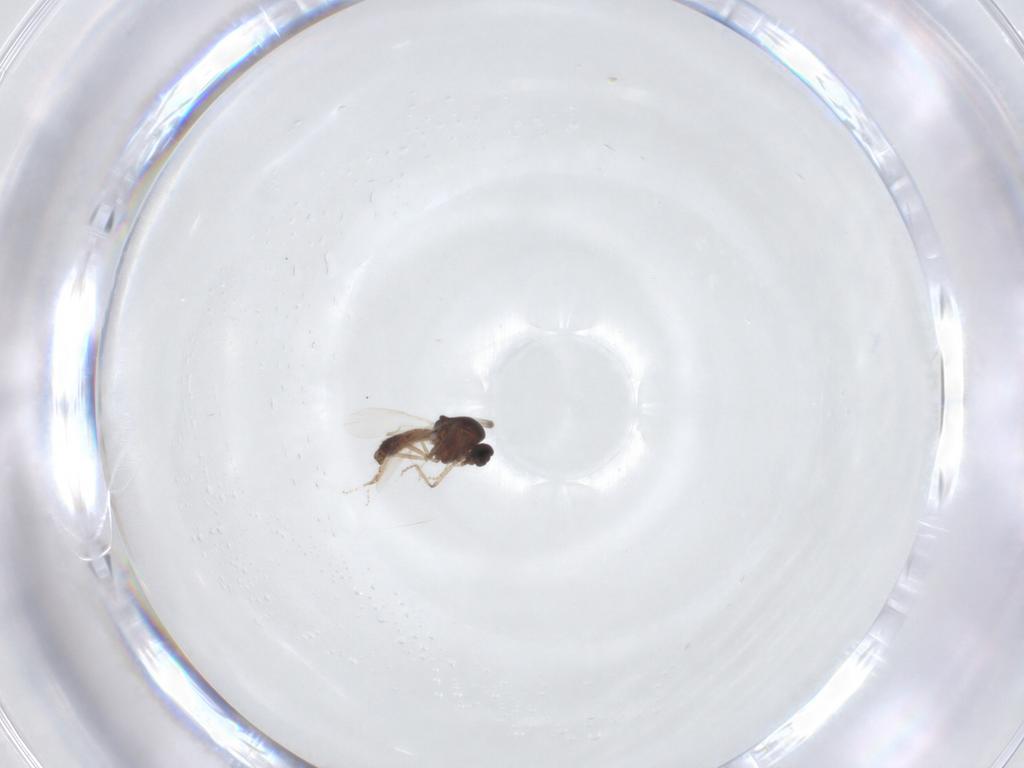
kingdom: Animalia
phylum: Arthropoda
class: Insecta
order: Diptera
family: Ceratopogonidae
